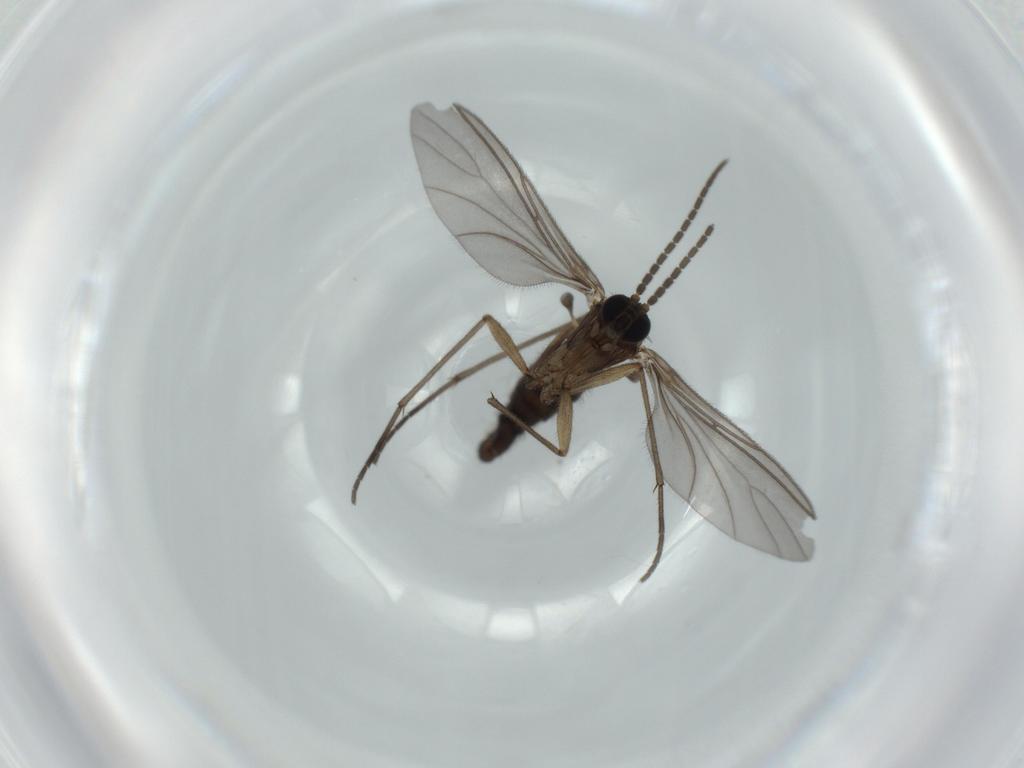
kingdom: Animalia
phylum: Arthropoda
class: Insecta
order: Diptera
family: Sciaridae
